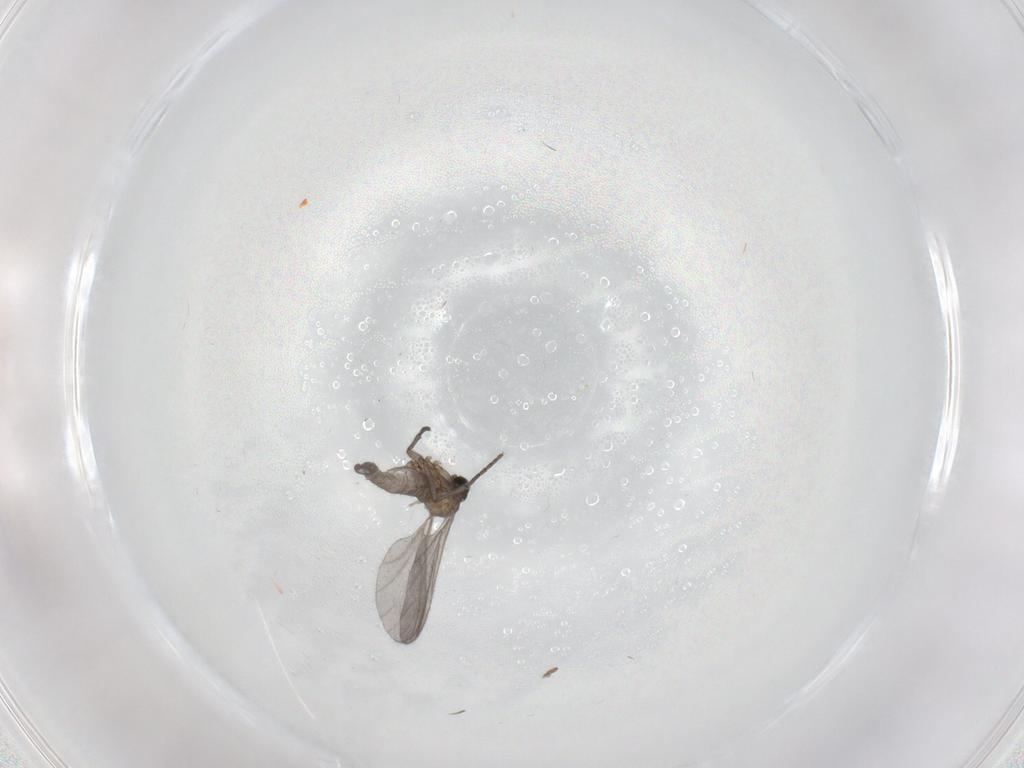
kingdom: Animalia
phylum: Arthropoda
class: Insecta
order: Diptera
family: Sciaridae
